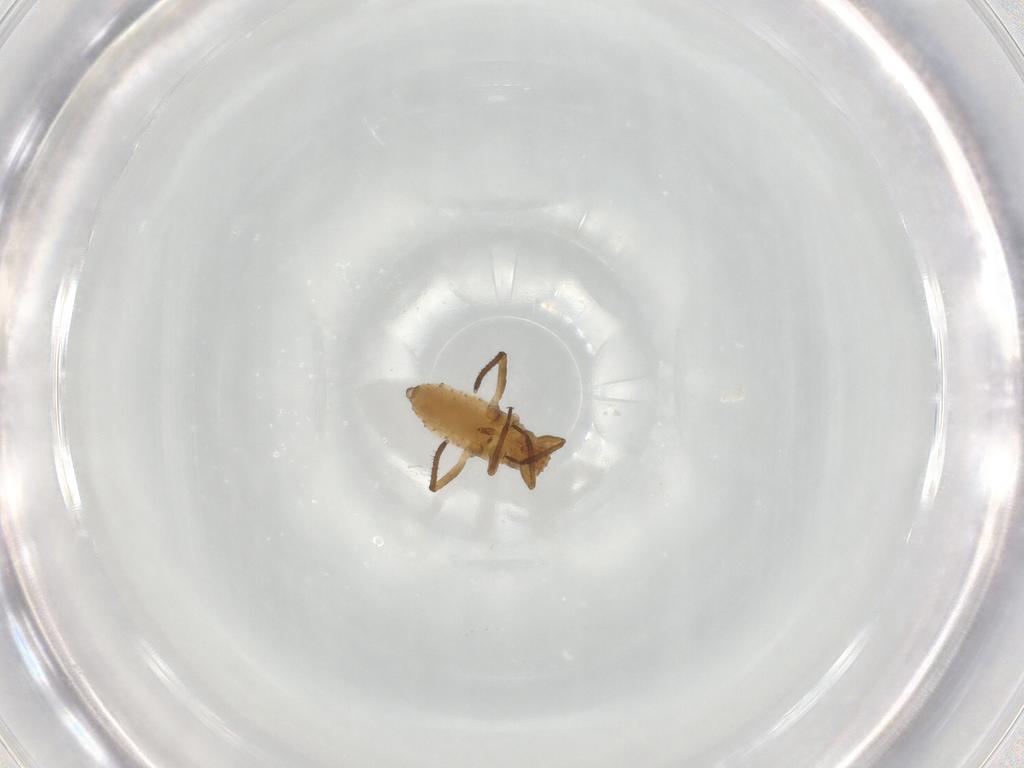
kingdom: Animalia
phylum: Arthropoda
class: Insecta
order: Hemiptera
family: Aphididae
